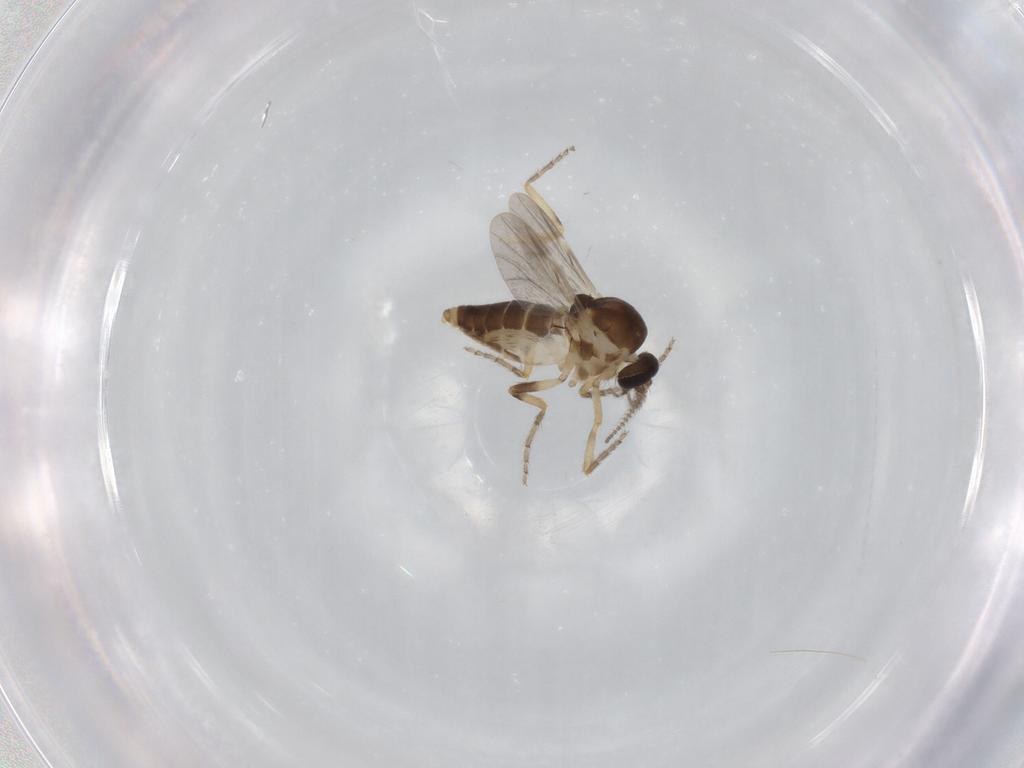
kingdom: Animalia
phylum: Arthropoda
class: Insecta
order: Diptera
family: Ceratopogonidae
